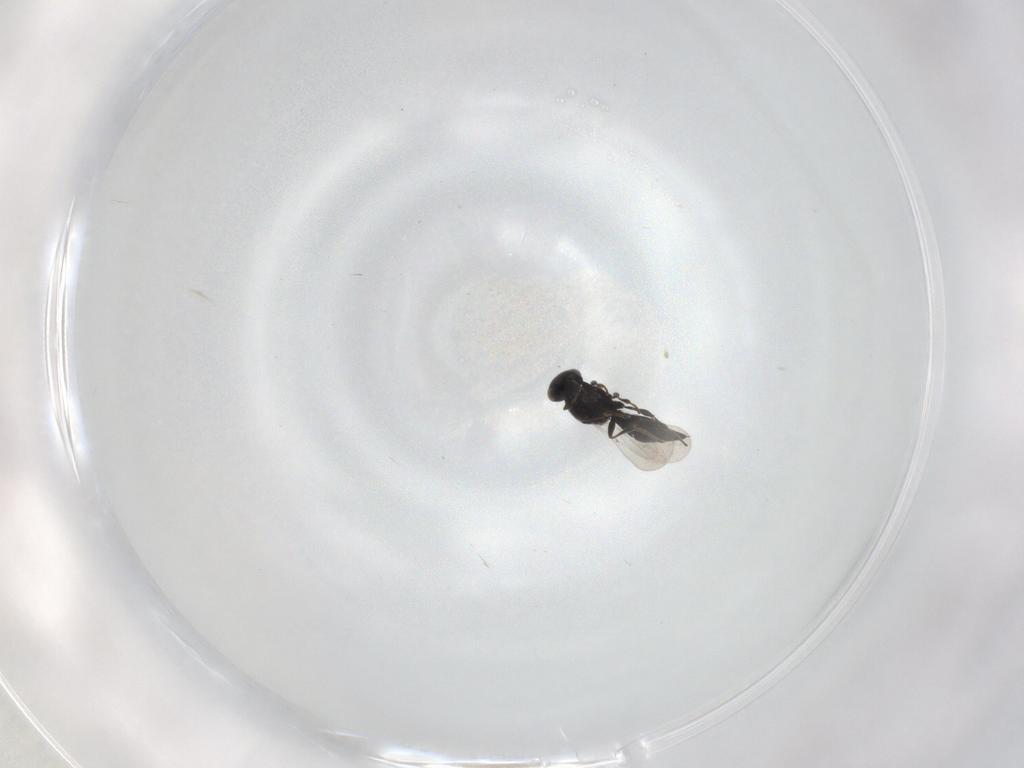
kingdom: Animalia
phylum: Arthropoda
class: Insecta
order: Hymenoptera
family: Platygastridae
